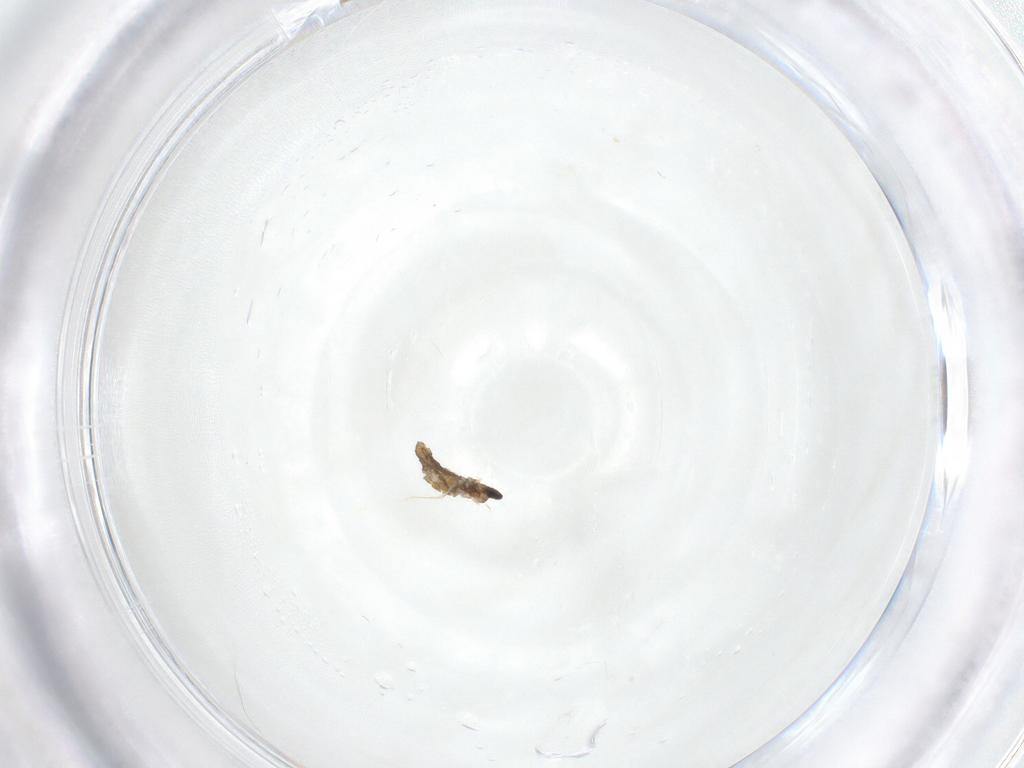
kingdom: Animalia
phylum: Arthropoda
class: Insecta
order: Diptera
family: Cecidomyiidae
